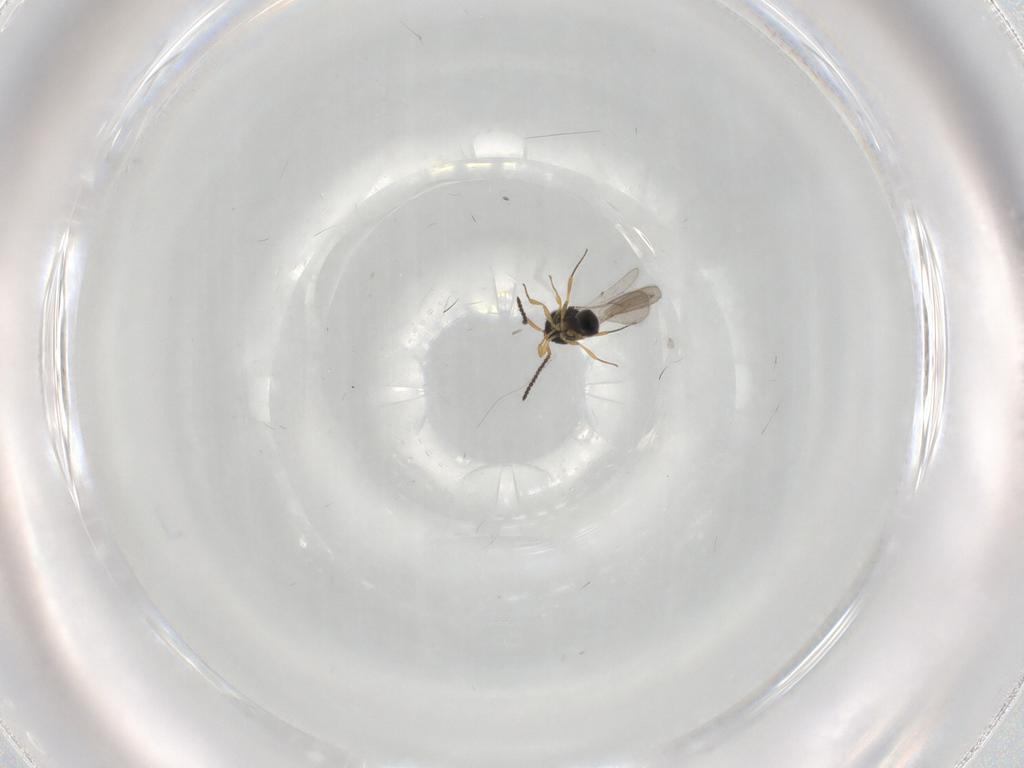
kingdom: Animalia
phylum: Arthropoda
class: Insecta
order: Hymenoptera
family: Scelionidae
